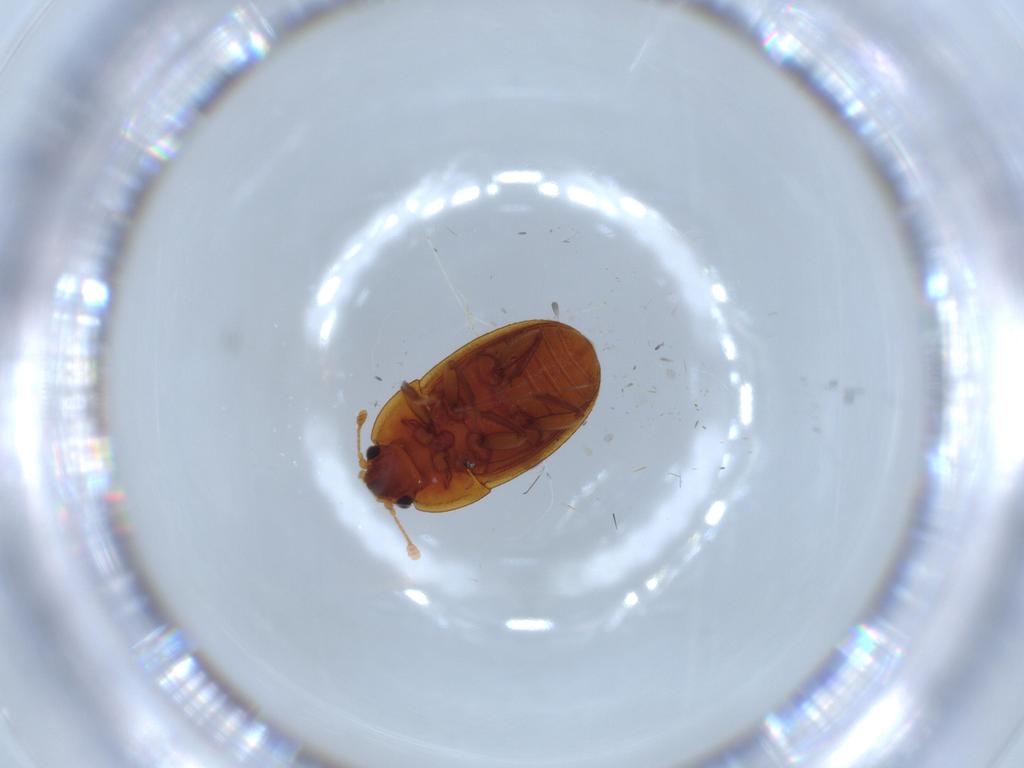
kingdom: Animalia
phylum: Arthropoda
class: Insecta
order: Coleoptera
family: Nitidulidae
